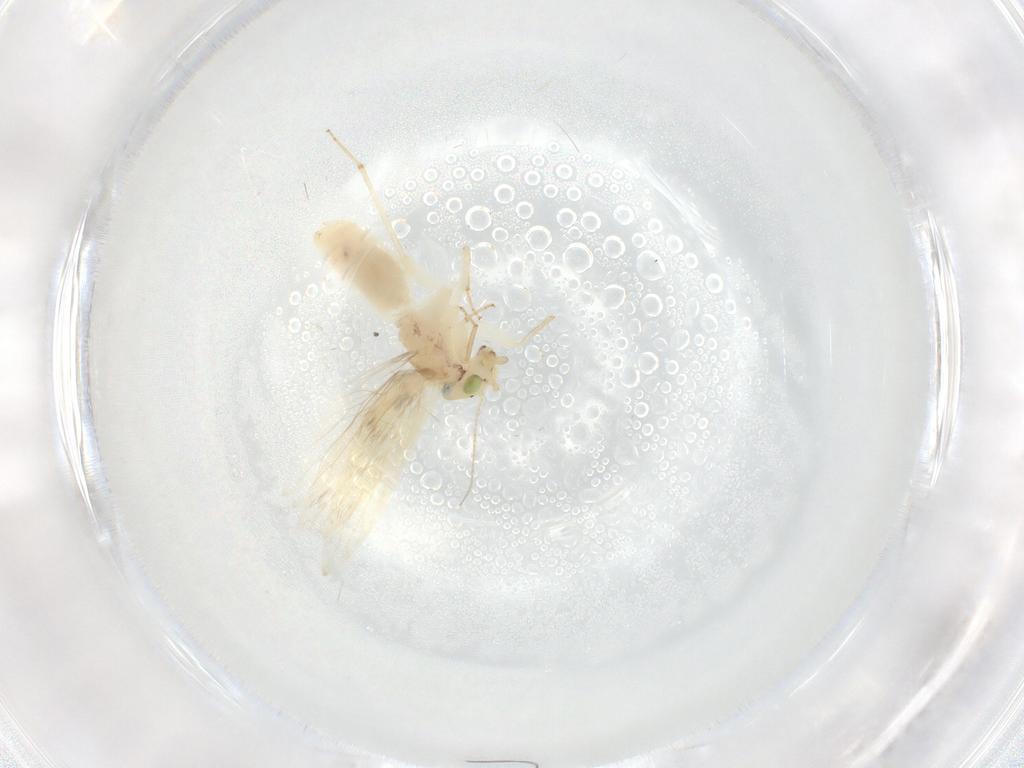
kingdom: Animalia
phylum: Arthropoda
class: Insecta
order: Psocodea
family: Lepidopsocidae
